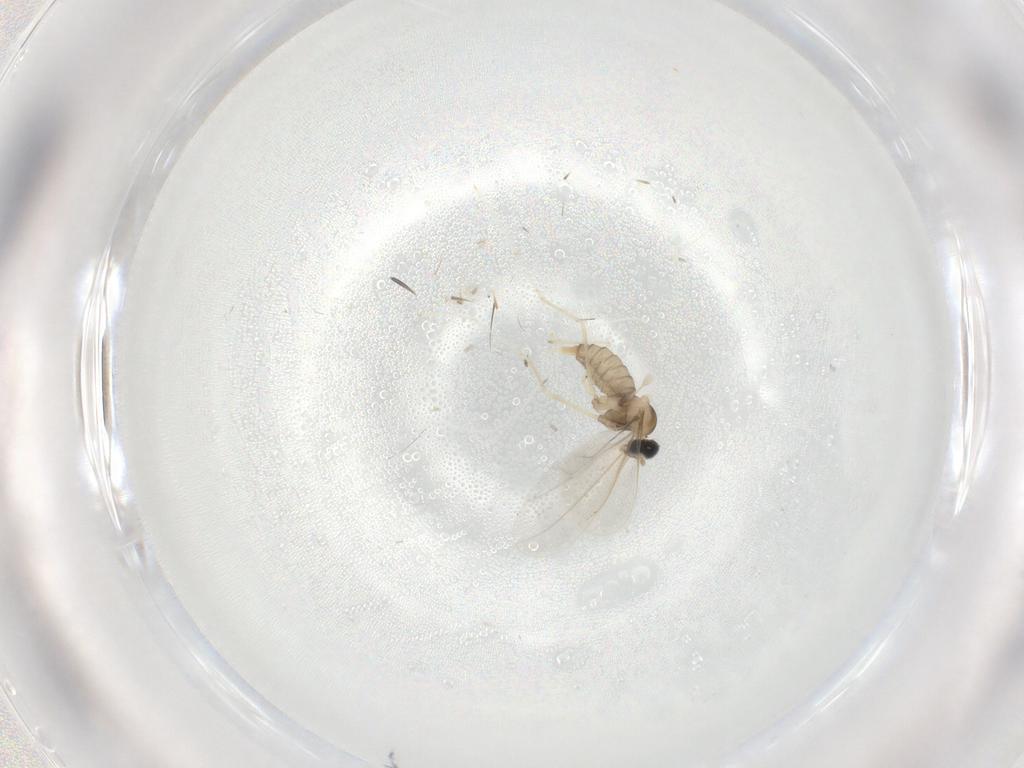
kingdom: Animalia
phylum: Arthropoda
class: Insecta
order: Diptera
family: Cecidomyiidae
